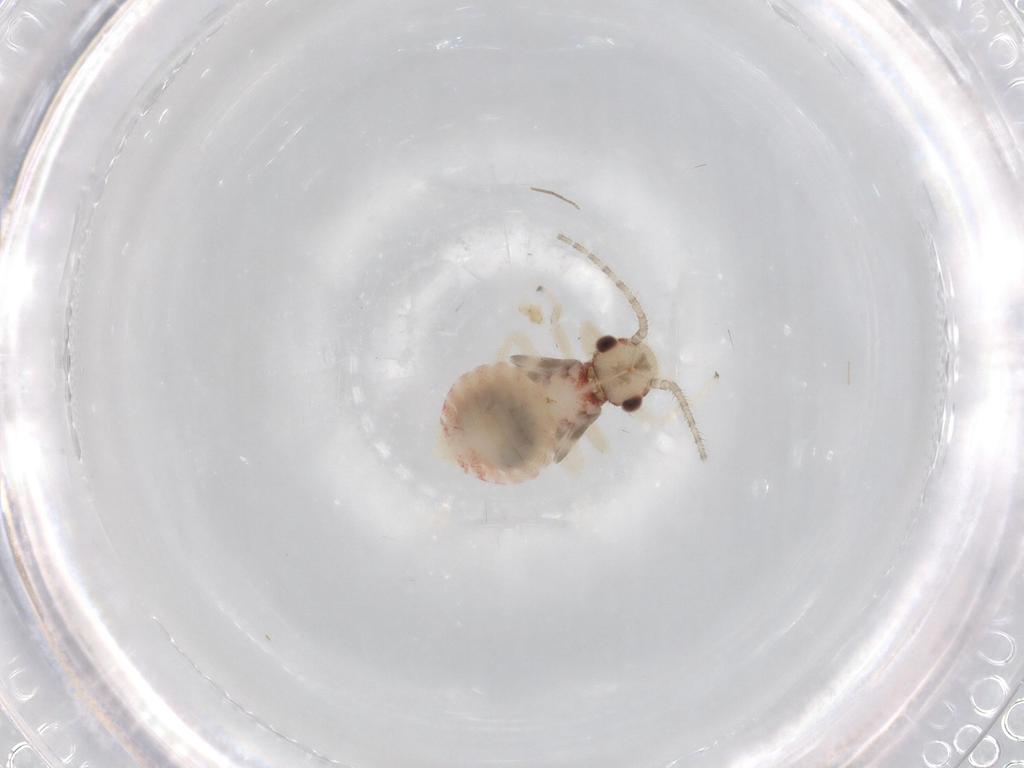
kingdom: Animalia
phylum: Arthropoda
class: Insecta
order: Psocodea
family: Amphipsocidae
